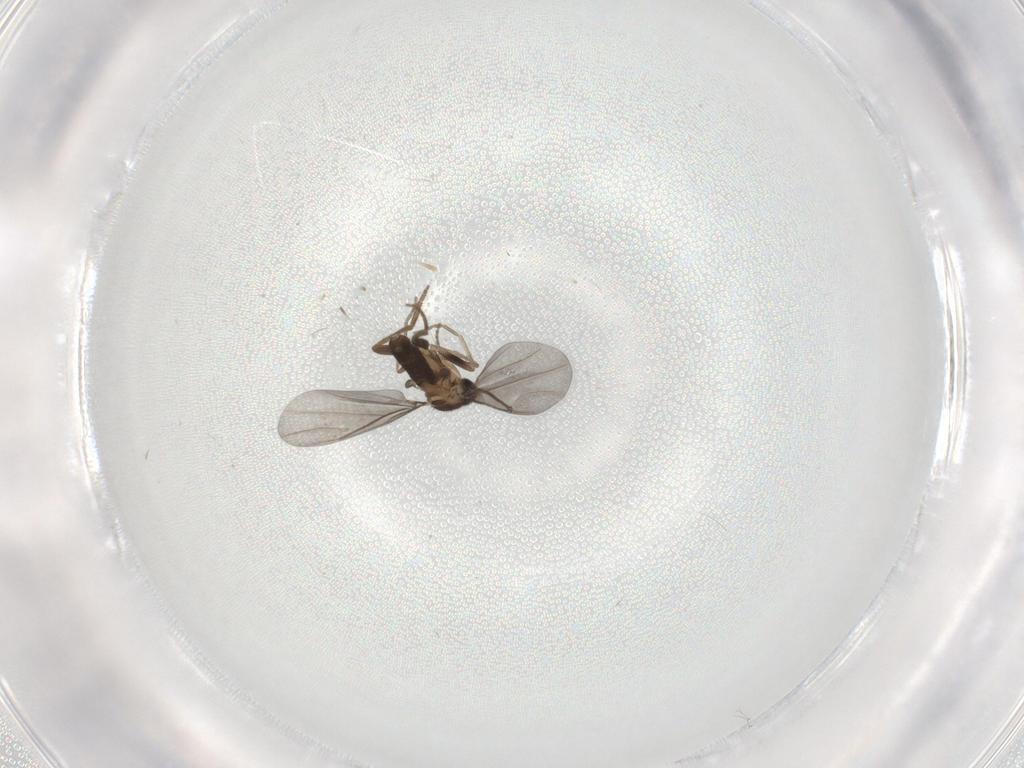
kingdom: Animalia
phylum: Arthropoda
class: Insecta
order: Diptera
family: Phoridae
